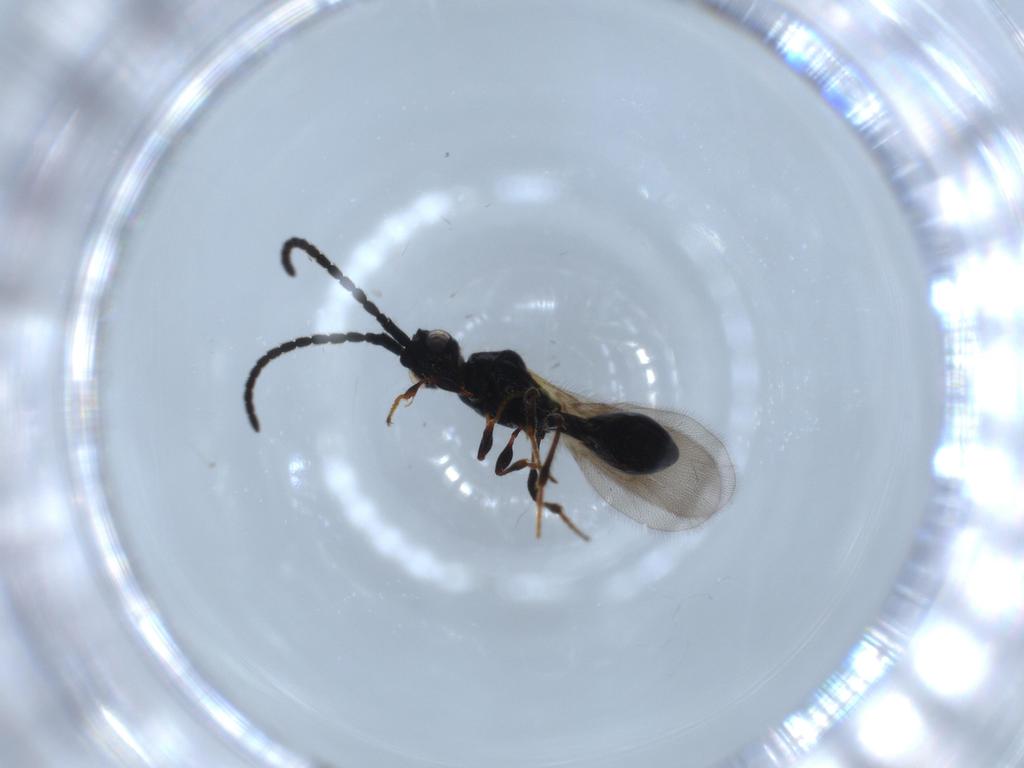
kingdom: Animalia
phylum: Arthropoda
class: Insecta
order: Hymenoptera
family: Diapriidae
